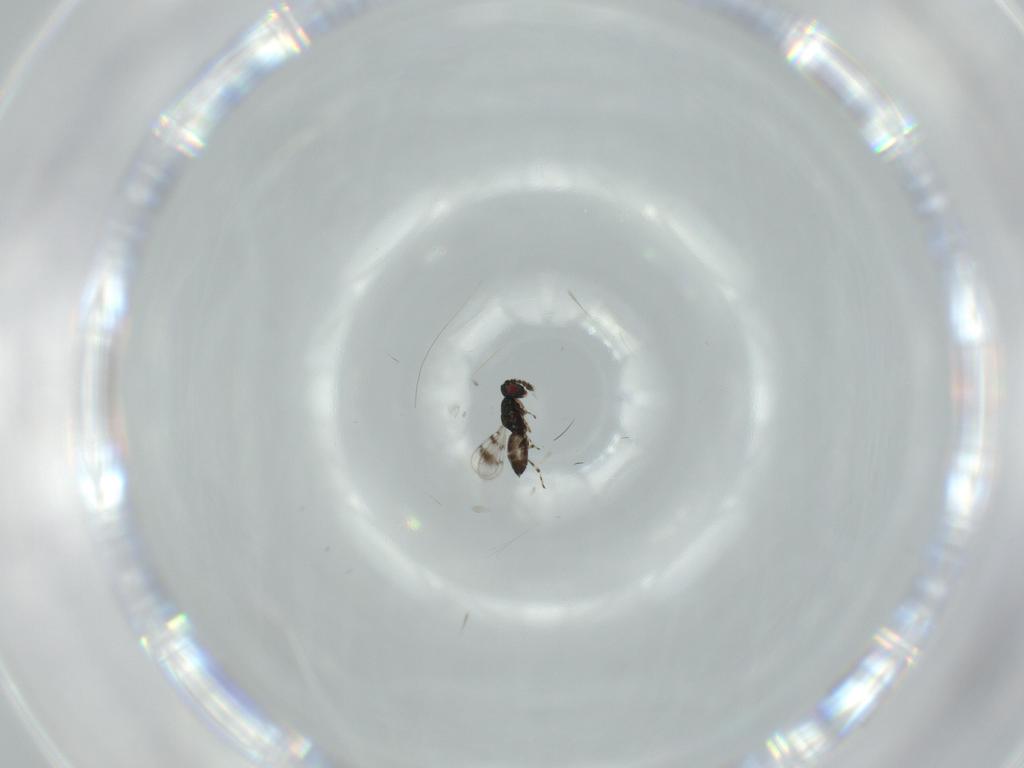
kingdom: Animalia
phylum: Arthropoda
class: Insecta
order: Hymenoptera
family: Eulophidae
